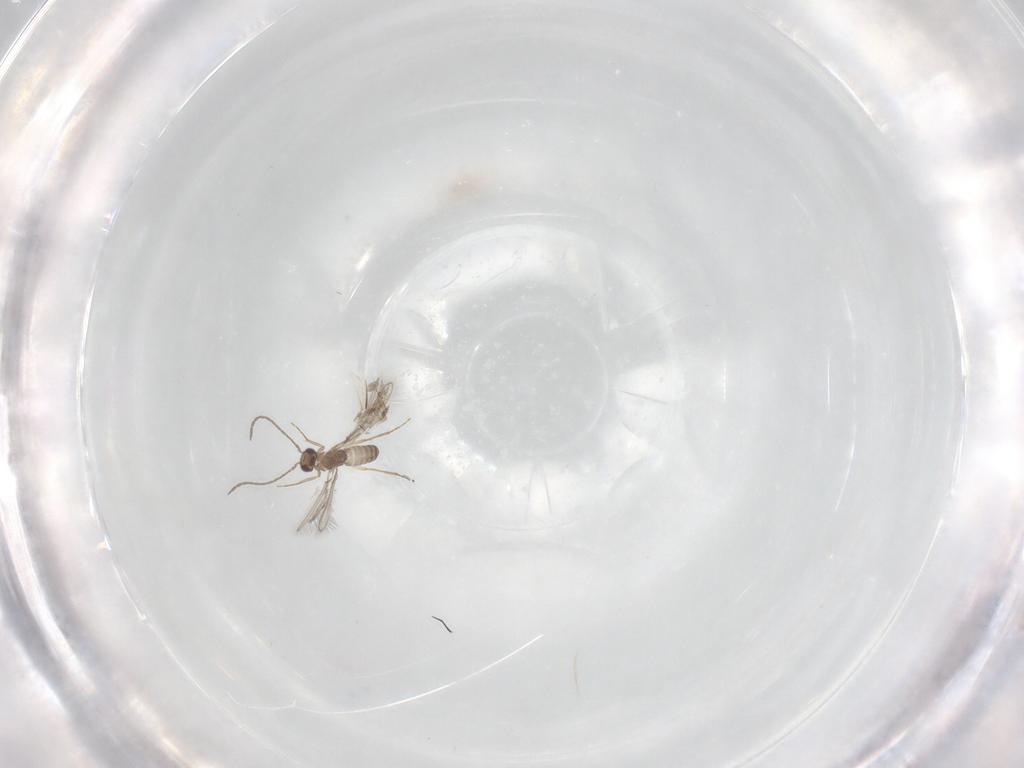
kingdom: Animalia
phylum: Arthropoda
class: Insecta
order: Hymenoptera
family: Mymaridae
